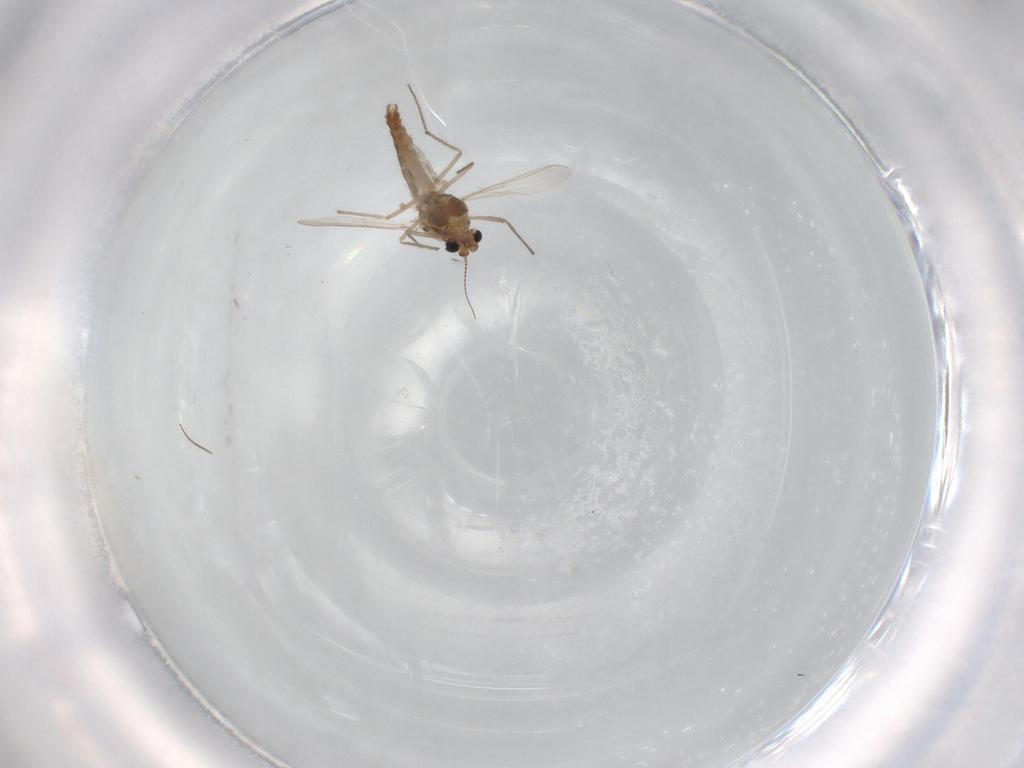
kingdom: Animalia
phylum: Arthropoda
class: Insecta
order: Diptera
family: Chironomidae
